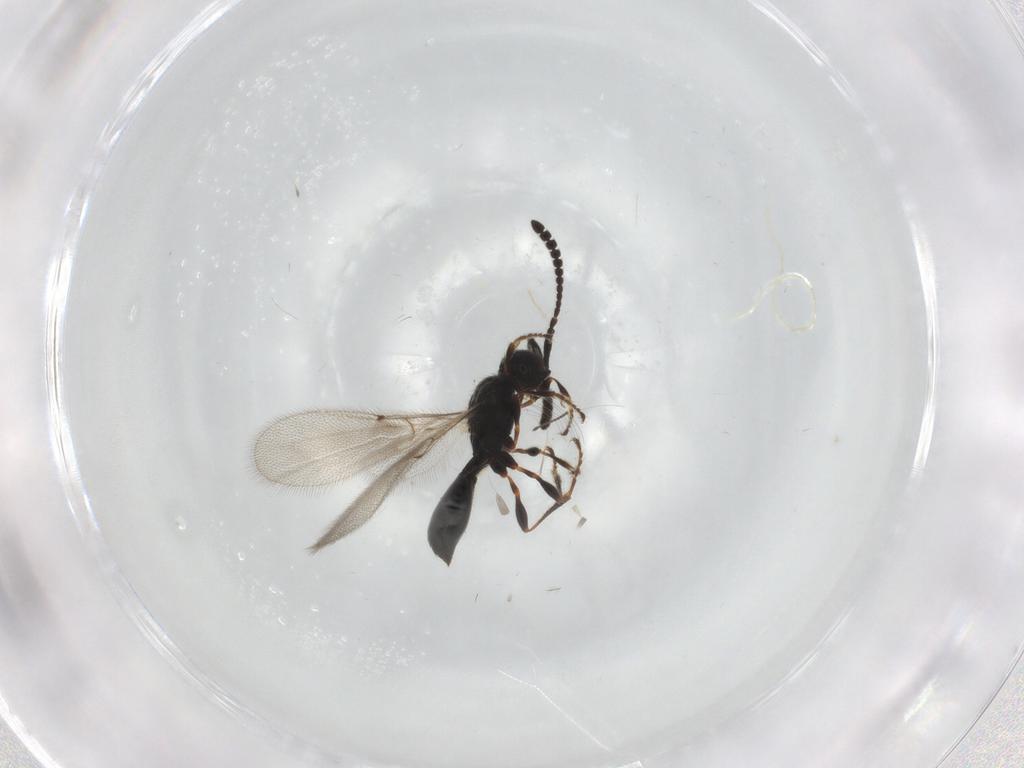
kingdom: Animalia
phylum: Arthropoda
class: Insecta
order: Hymenoptera
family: Diapriidae
